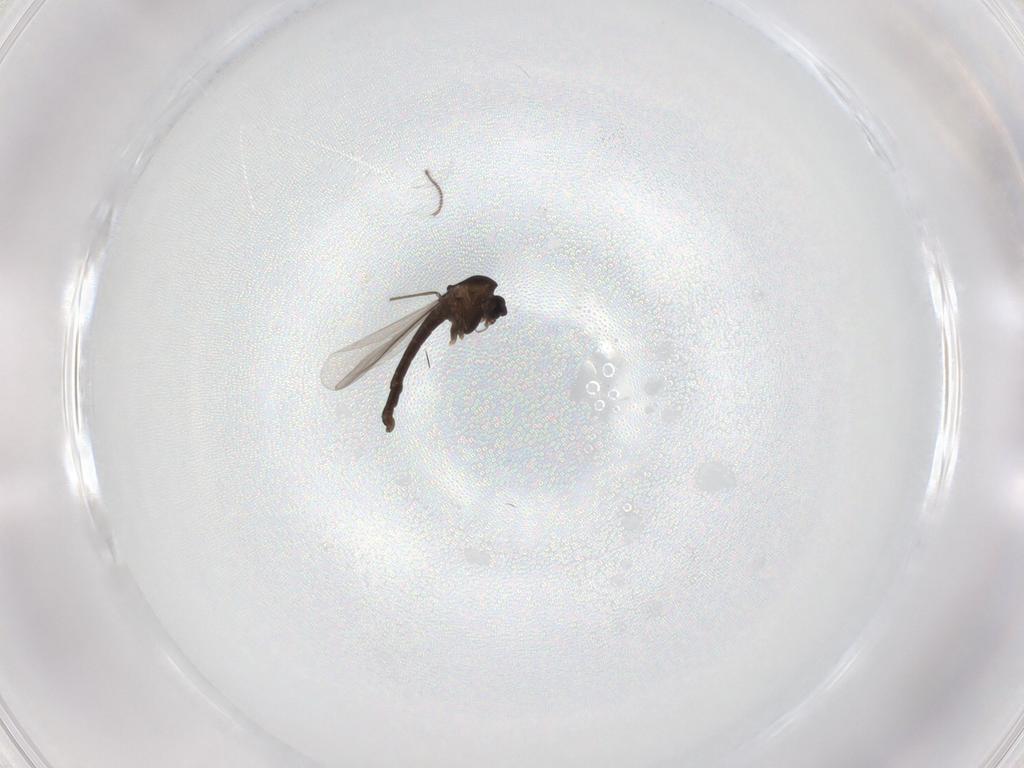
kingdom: Animalia
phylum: Arthropoda
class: Insecta
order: Diptera
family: Chironomidae
